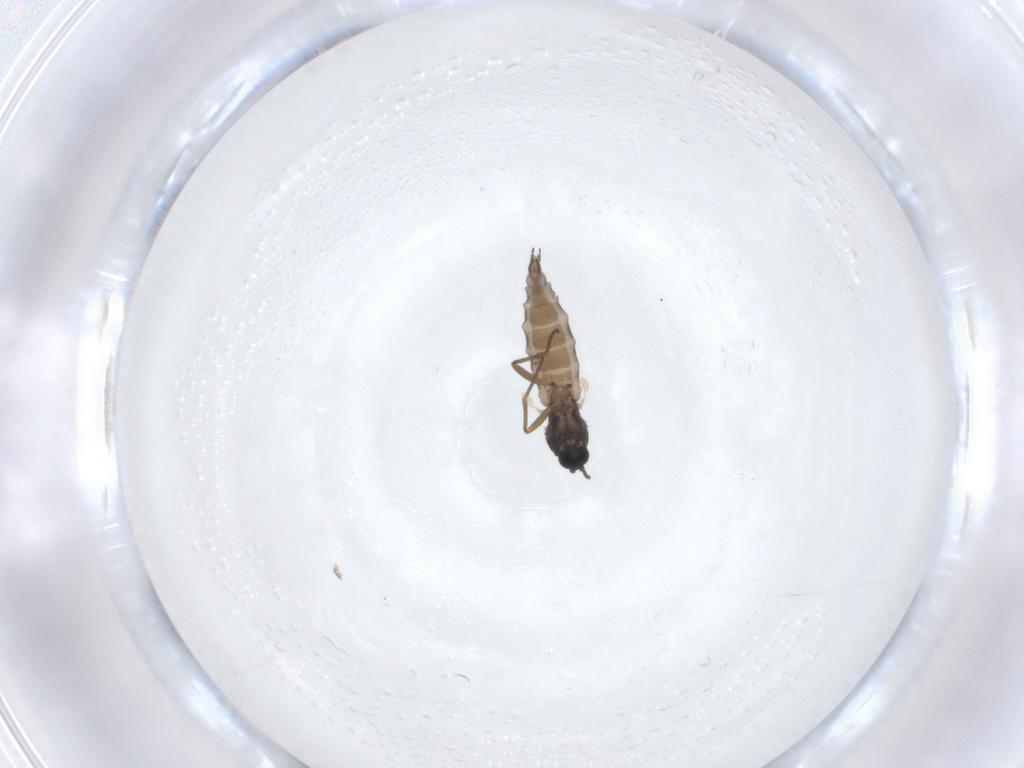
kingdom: Animalia
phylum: Arthropoda
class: Insecta
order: Diptera
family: Sciaridae
